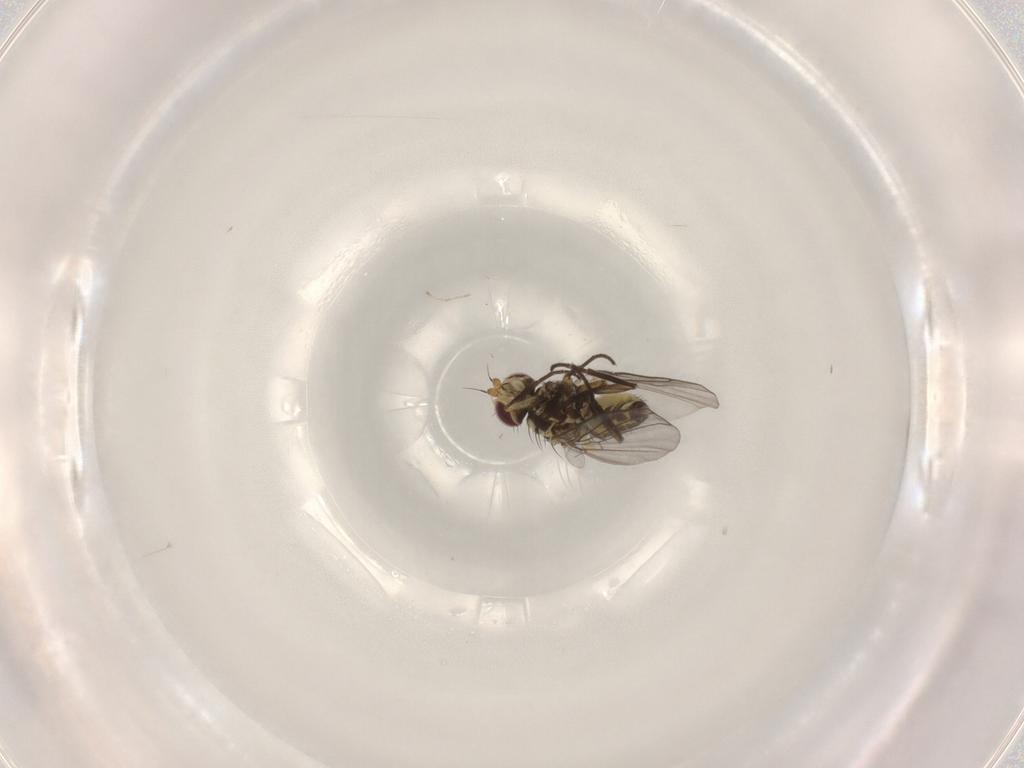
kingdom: Animalia
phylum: Arthropoda
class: Insecta
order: Diptera
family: Agromyzidae
